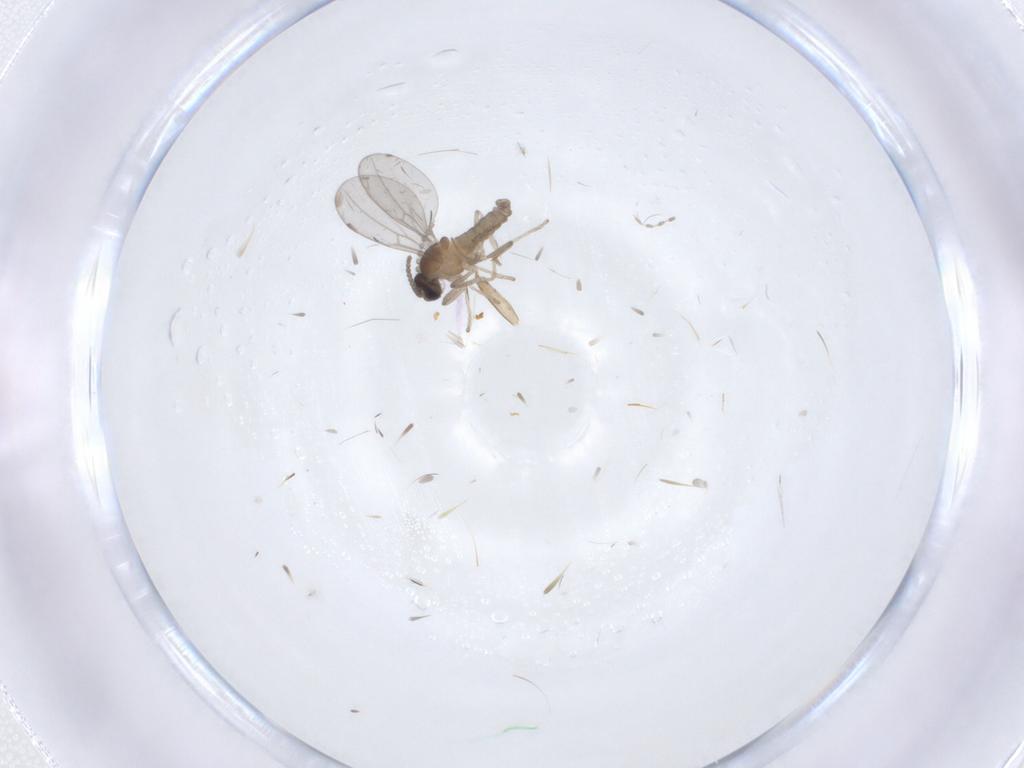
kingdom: Animalia
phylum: Arthropoda
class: Insecta
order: Diptera
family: Cecidomyiidae
